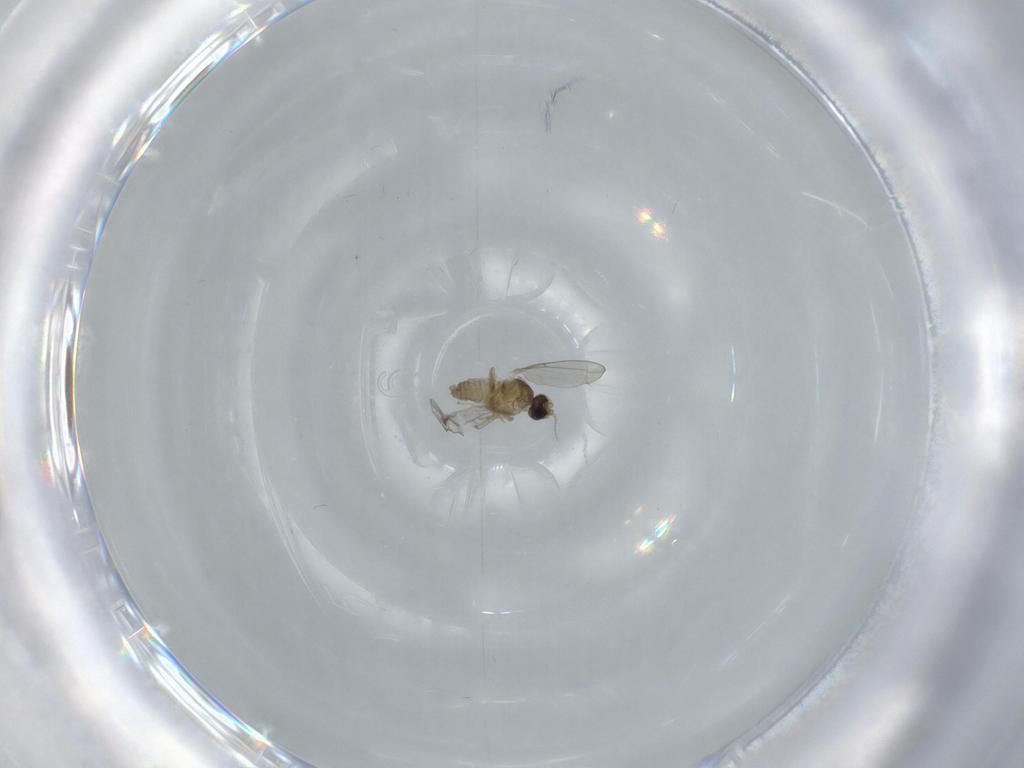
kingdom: Animalia
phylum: Arthropoda
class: Insecta
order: Diptera
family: Cecidomyiidae
